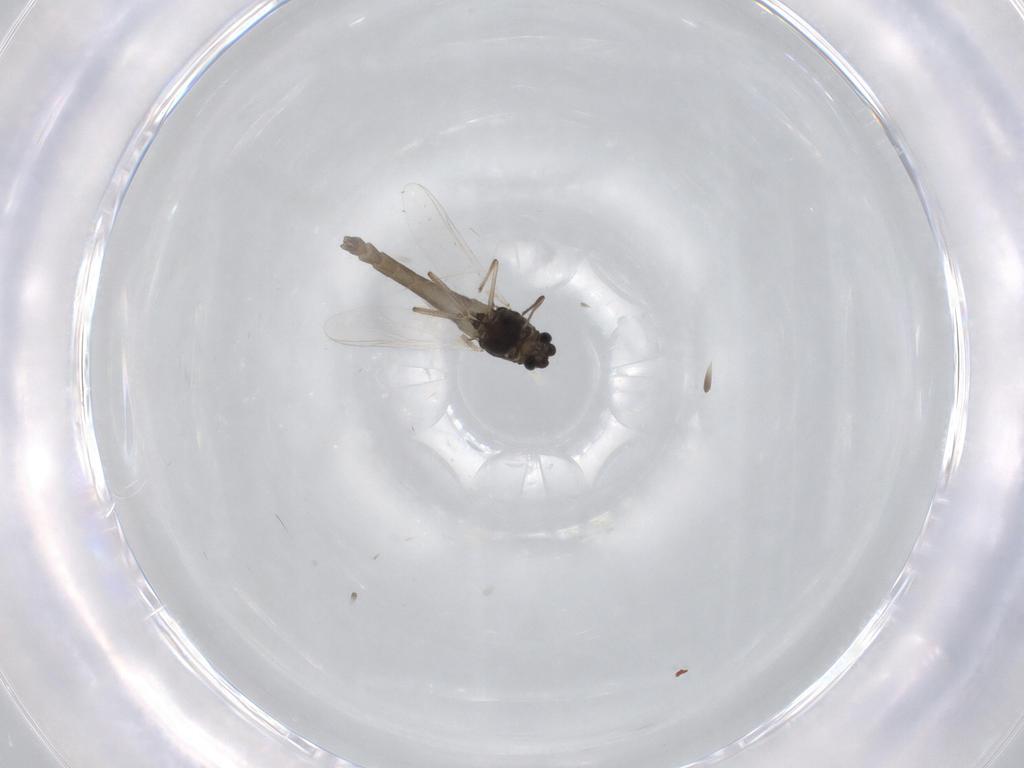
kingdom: Animalia
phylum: Arthropoda
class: Insecta
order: Diptera
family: Chironomidae
